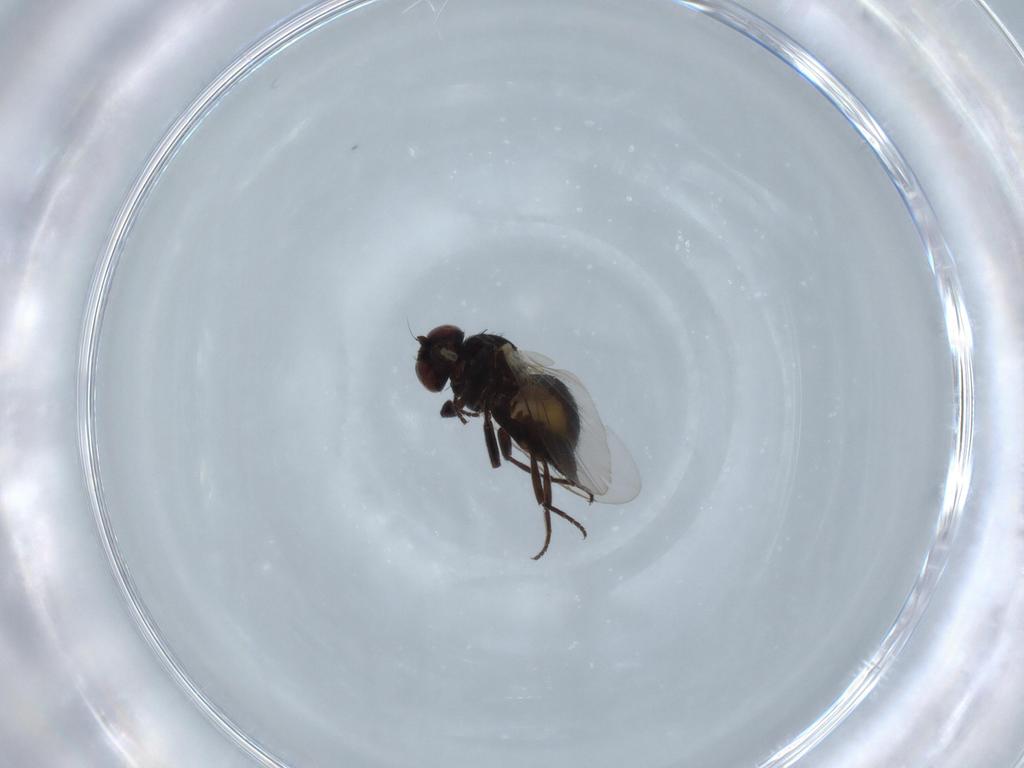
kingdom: Animalia
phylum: Arthropoda
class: Insecta
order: Diptera
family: Agromyzidae
